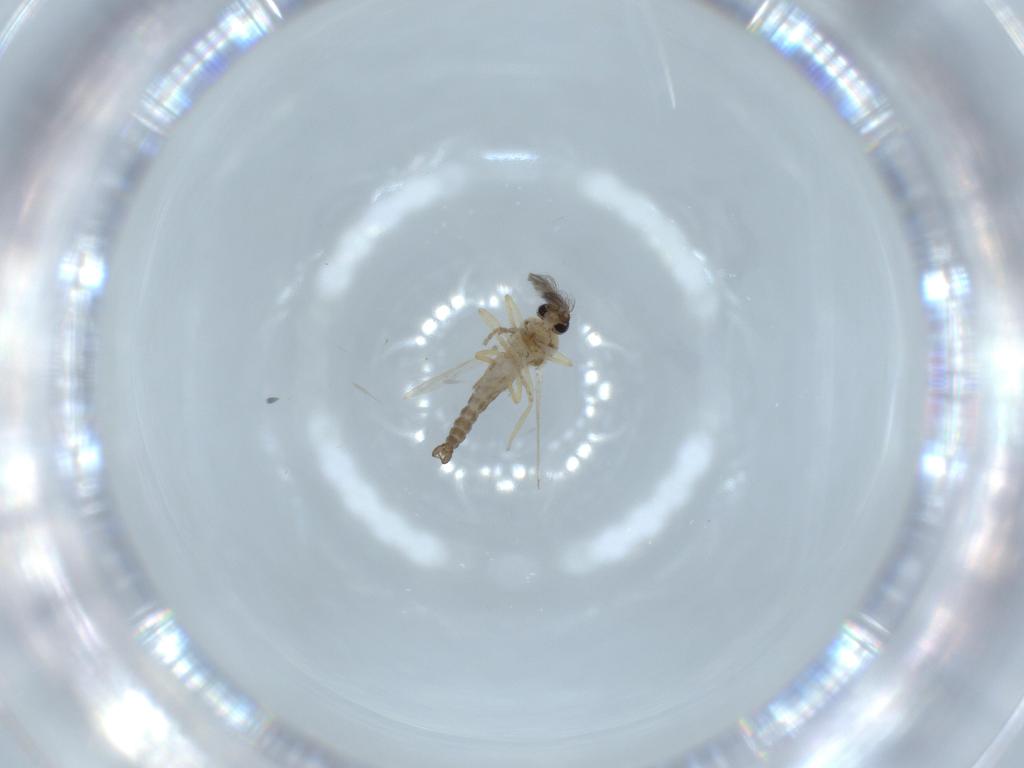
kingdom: Animalia
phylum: Arthropoda
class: Insecta
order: Diptera
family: Ceratopogonidae
